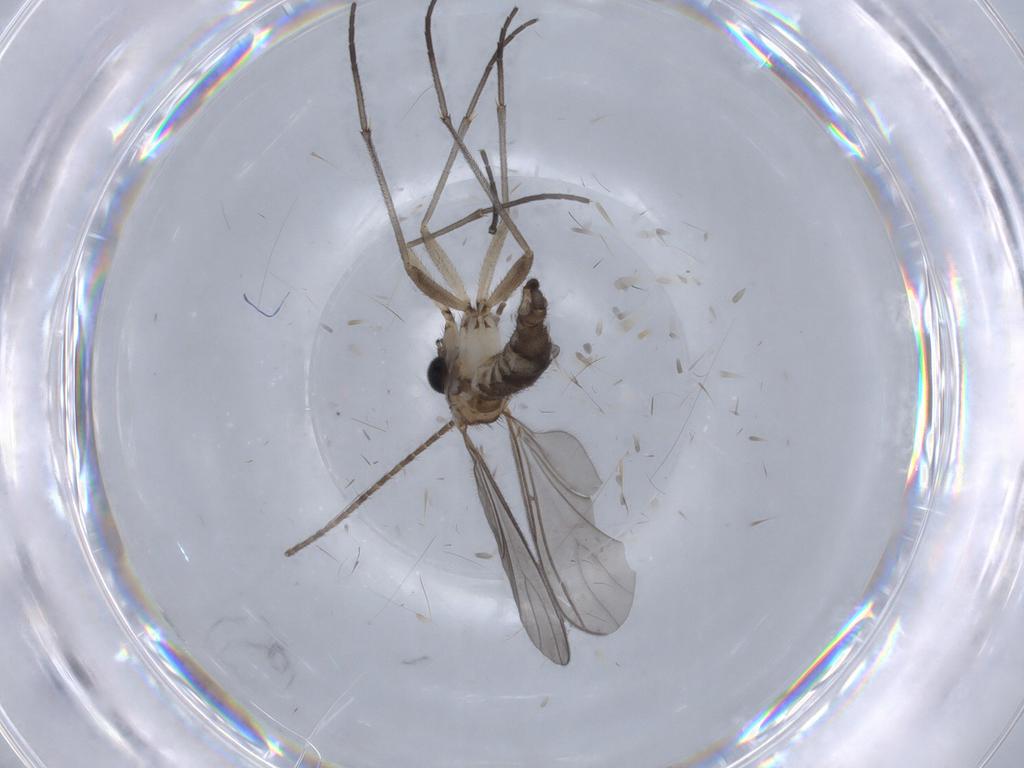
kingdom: Animalia
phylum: Arthropoda
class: Insecta
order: Diptera
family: Sciaridae
